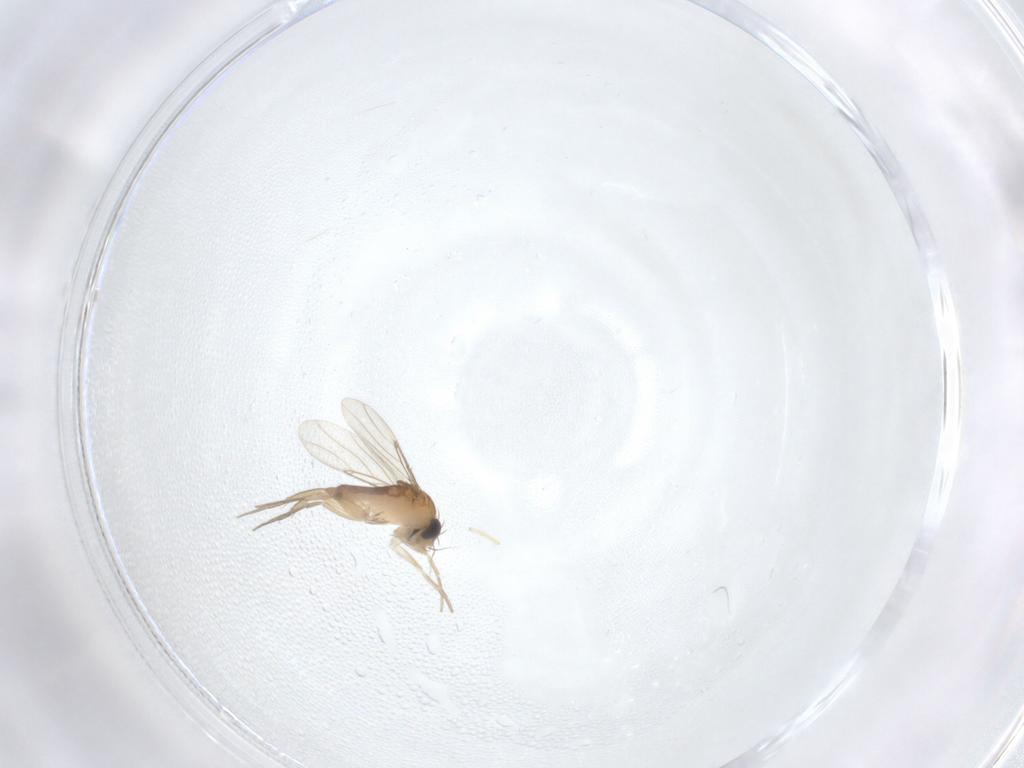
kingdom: Animalia
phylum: Arthropoda
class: Insecta
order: Diptera
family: Phoridae
